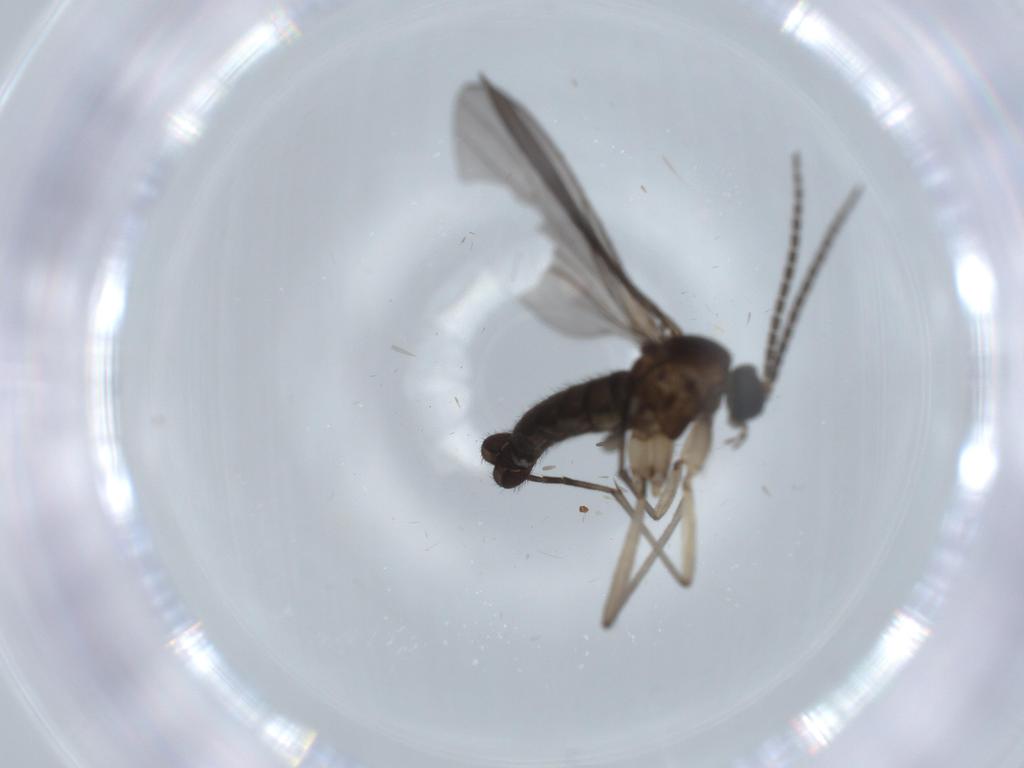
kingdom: Animalia
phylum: Arthropoda
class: Insecta
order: Diptera
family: Sciaridae
